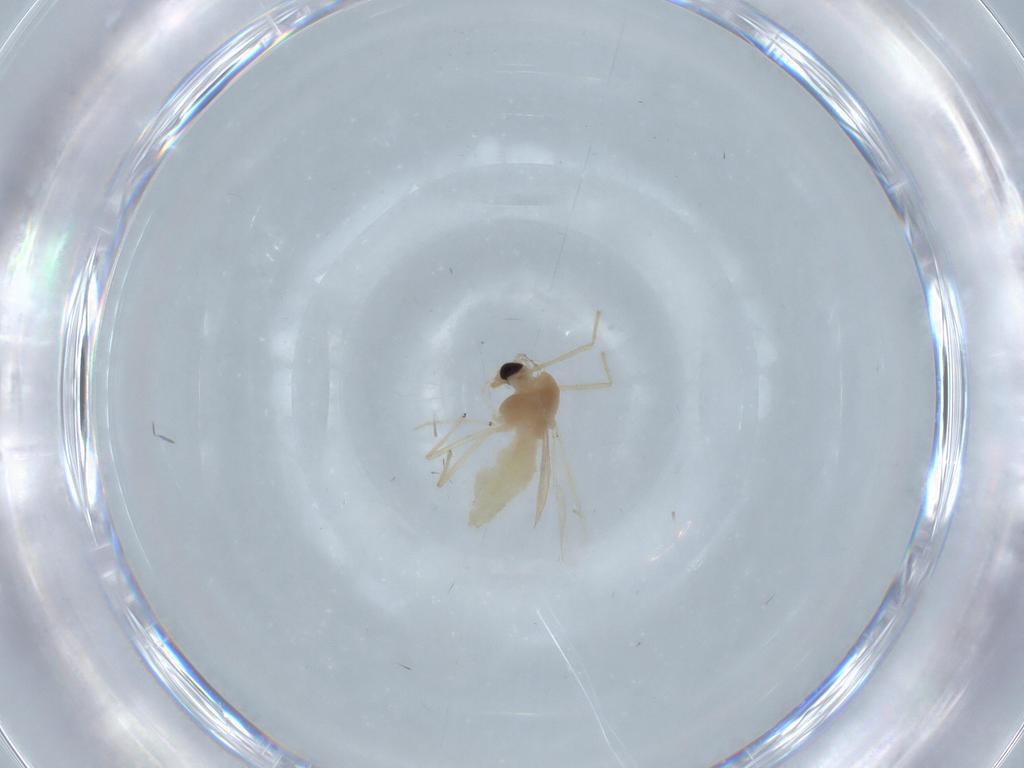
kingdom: Animalia
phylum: Arthropoda
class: Insecta
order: Diptera
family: Chironomidae
